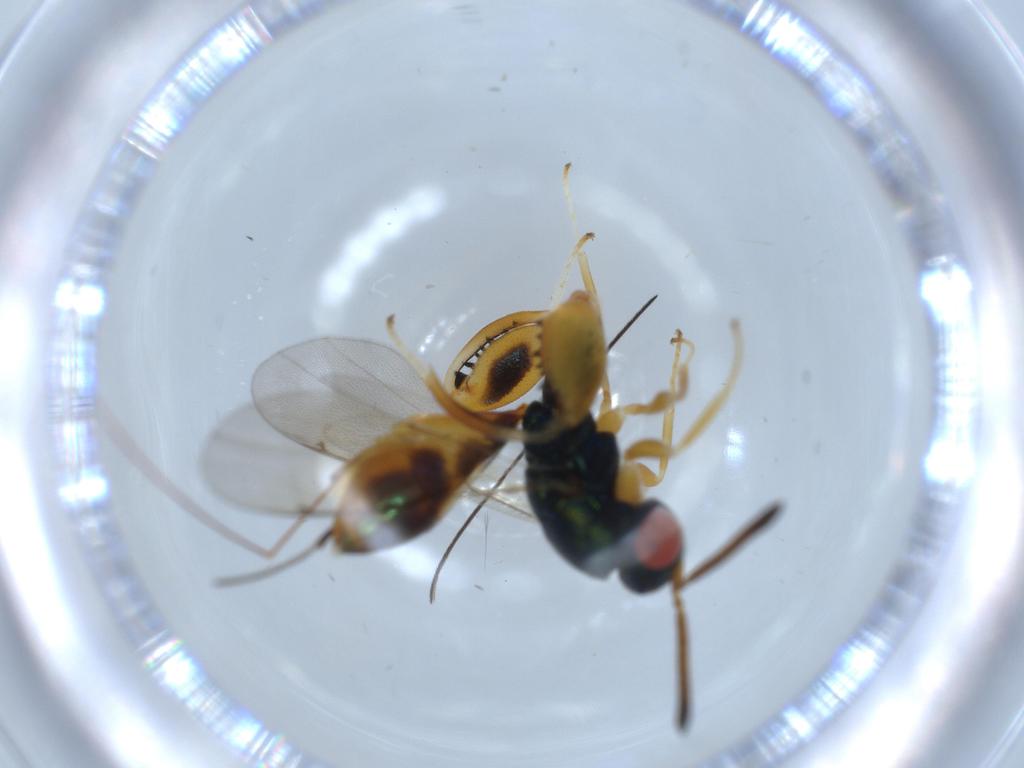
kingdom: Animalia
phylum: Arthropoda
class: Insecta
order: Hymenoptera
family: Torymidae
